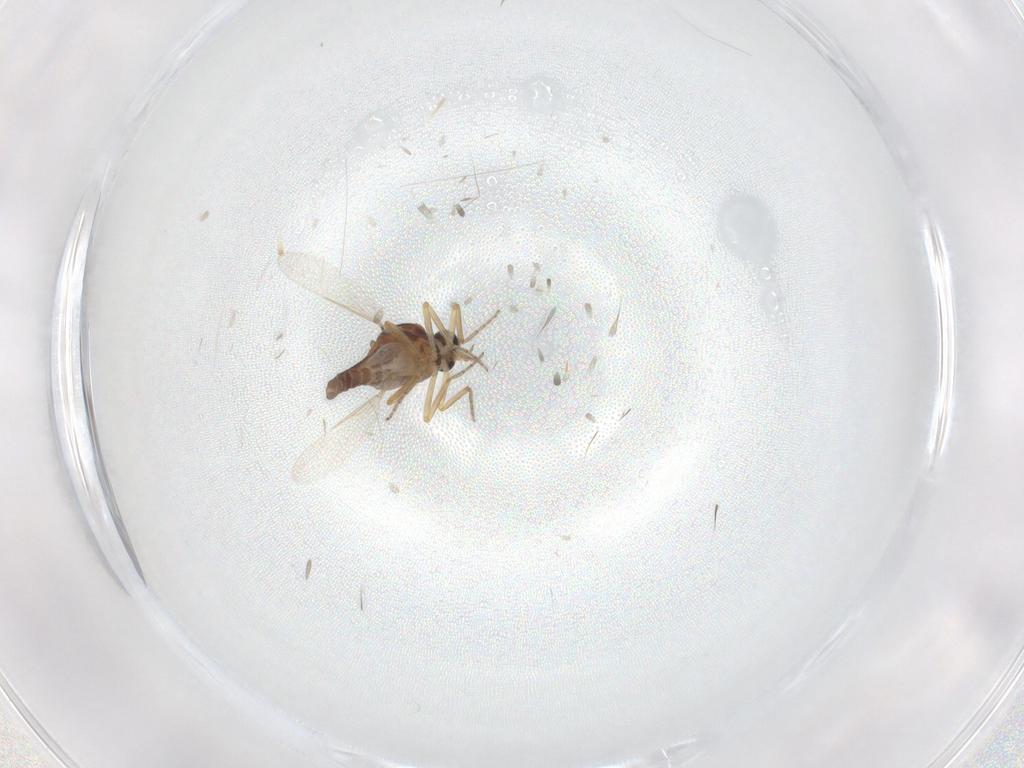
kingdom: Animalia
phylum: Arthropoda
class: Insecta
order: Diptera
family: Ceratopogonidae
